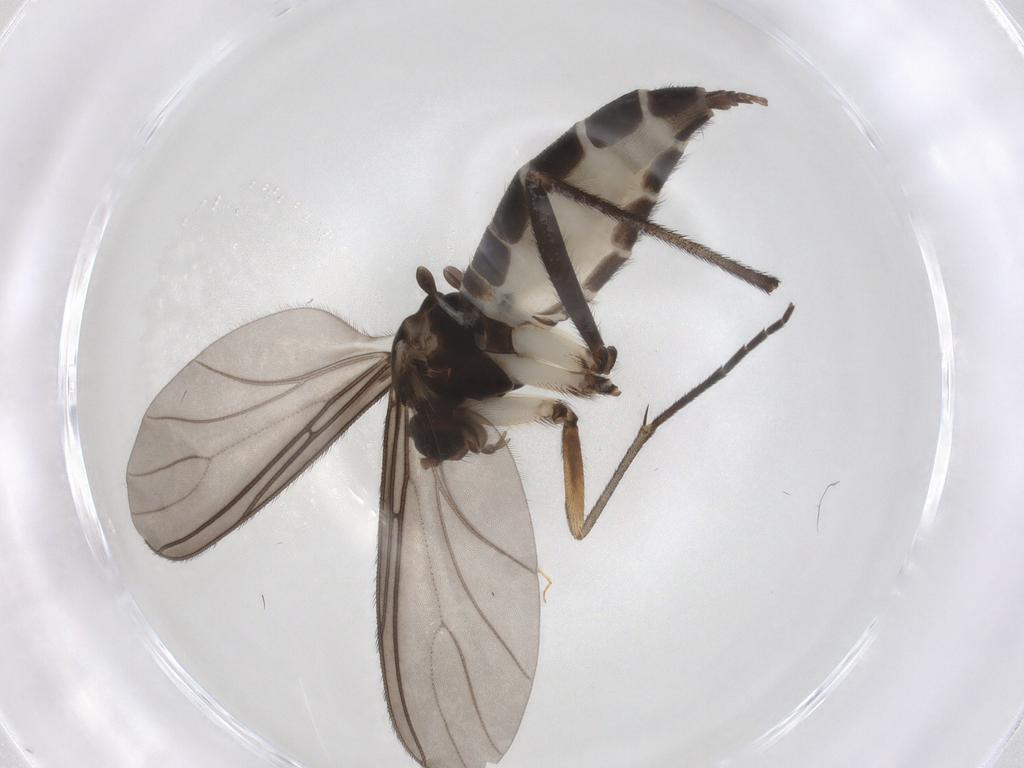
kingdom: Animalia
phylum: Arthropoda
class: Insecta
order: Diptera
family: Sciaridae
